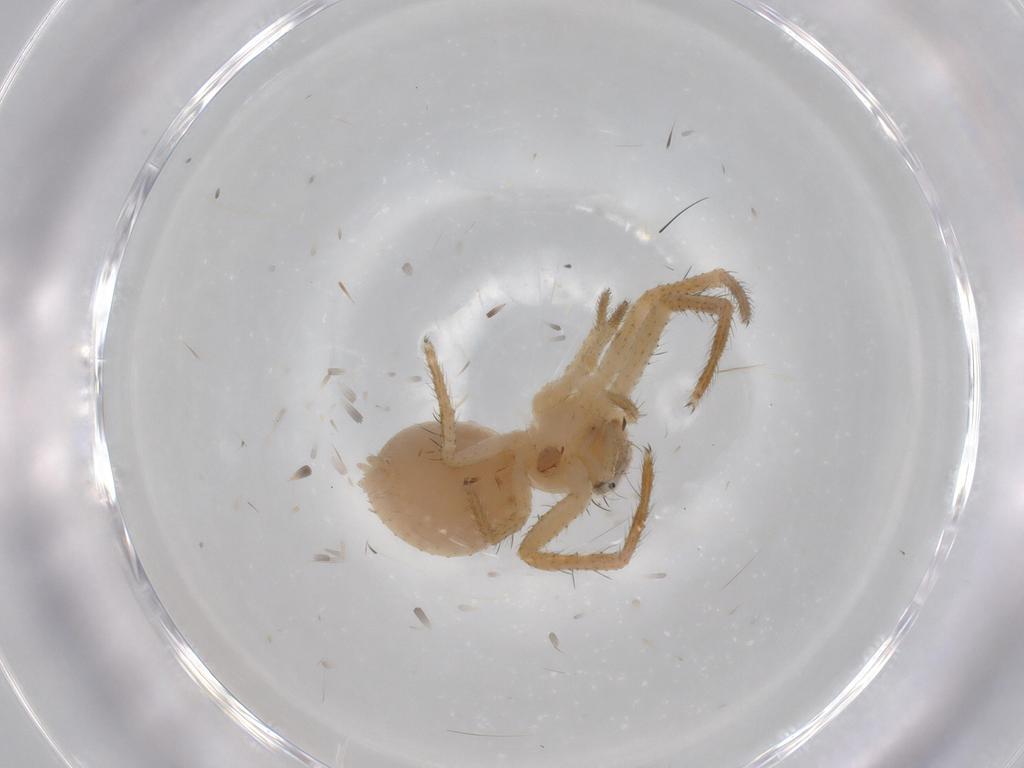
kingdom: Animalia
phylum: Arthropoda
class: Arachnida
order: Araneae
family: Thomisidae
